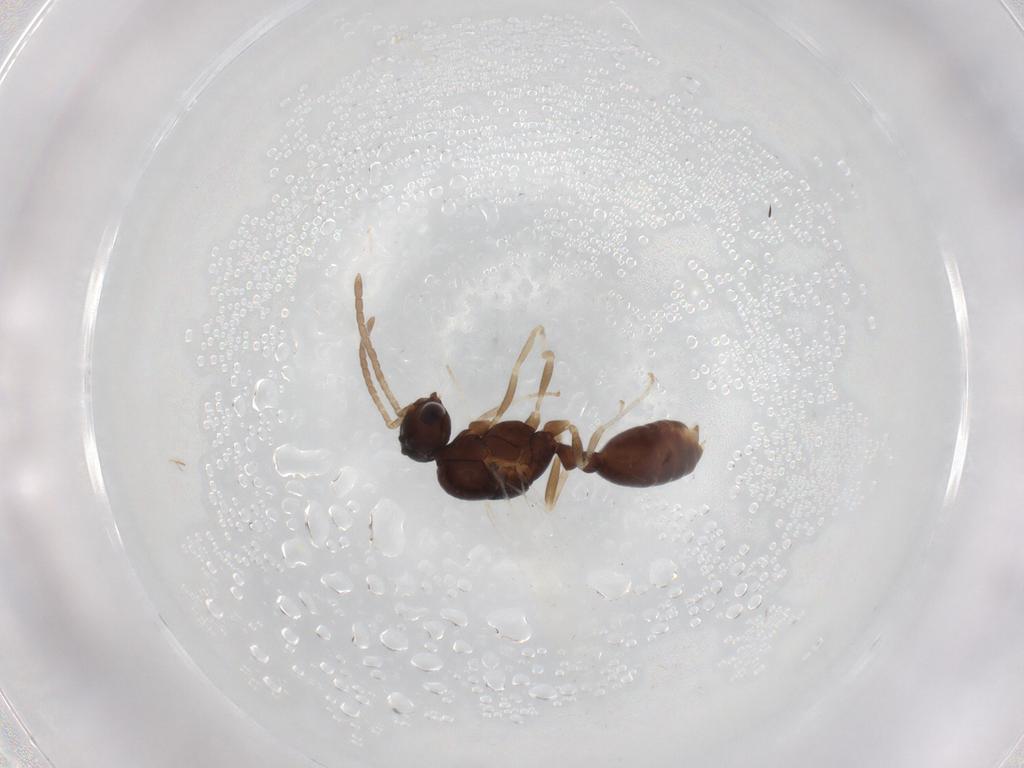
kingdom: Animalia
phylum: Arthropoda
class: Insecta
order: Hymenoptera
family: Formicidae
